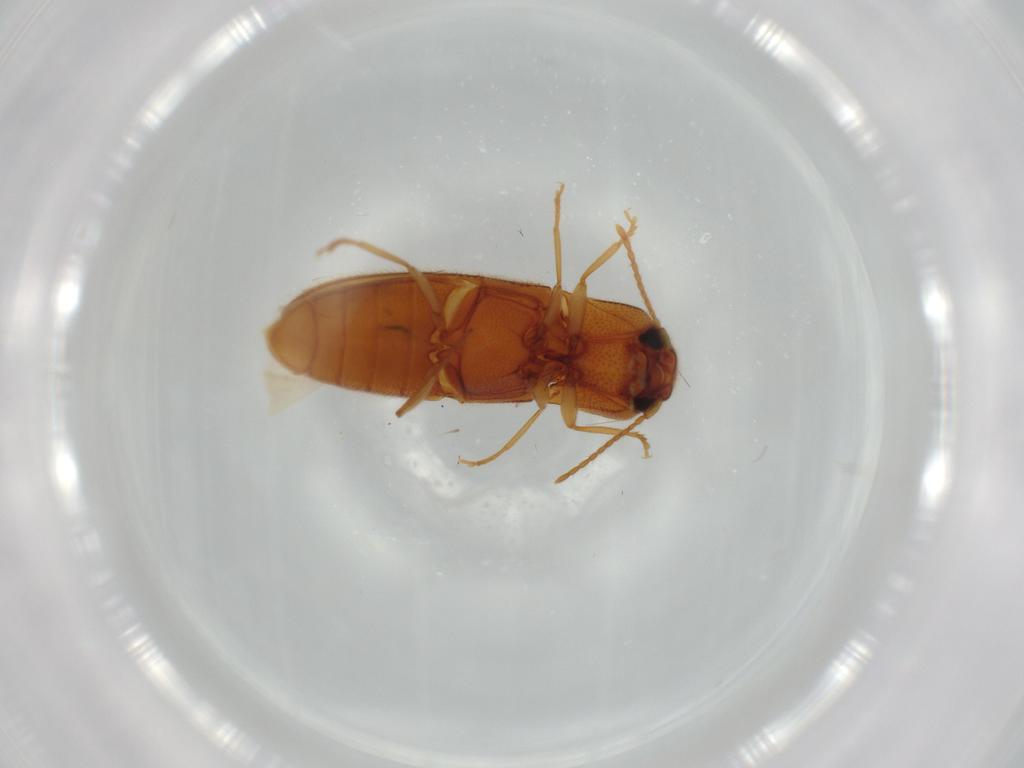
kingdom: Animalia
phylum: Arthropoda
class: Insecta
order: Coleoptera
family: Elateridae
